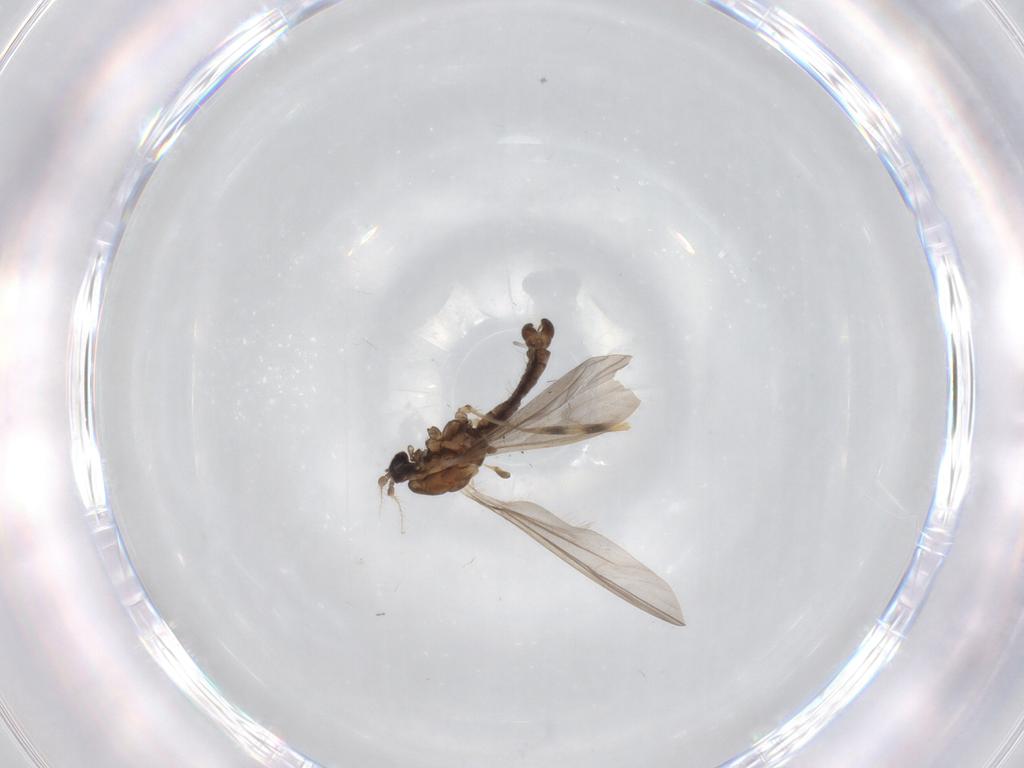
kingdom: Animalia
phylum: Arthropoda
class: Insecta
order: Diptera
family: Limoniidae
